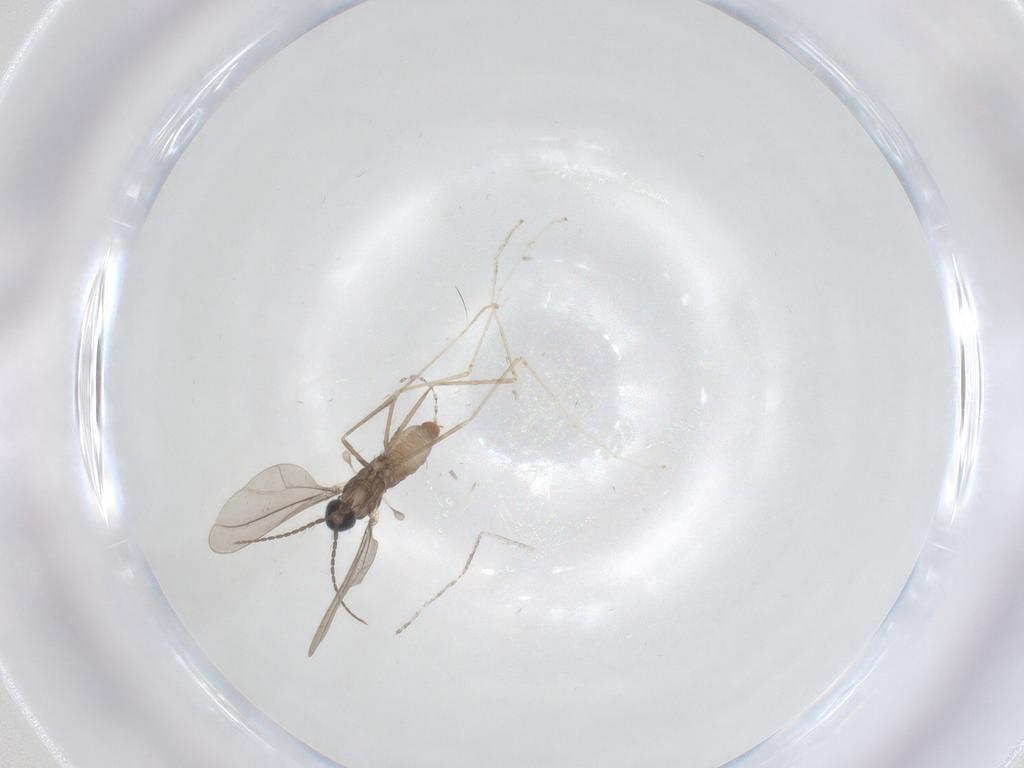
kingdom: Animalia
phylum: Arthropoda
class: Insecta
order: Diptera
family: Cecidomyiidae
